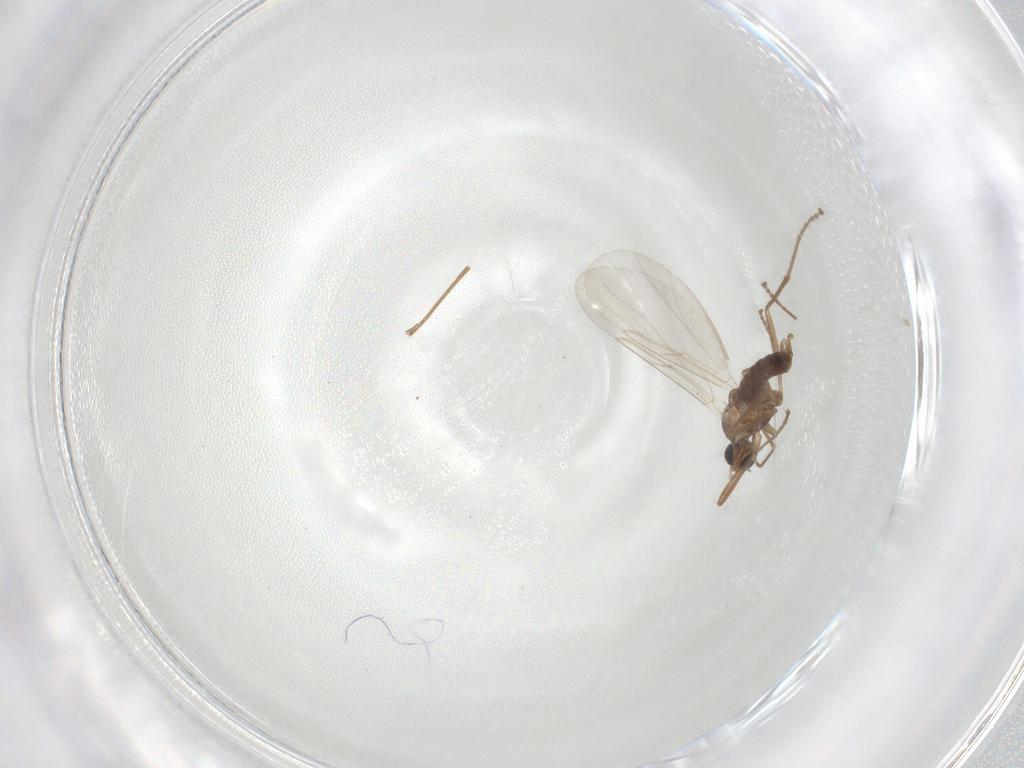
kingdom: Animalia
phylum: Arthropoda
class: Insecta
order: Diptera
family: Cecidomyiidae
